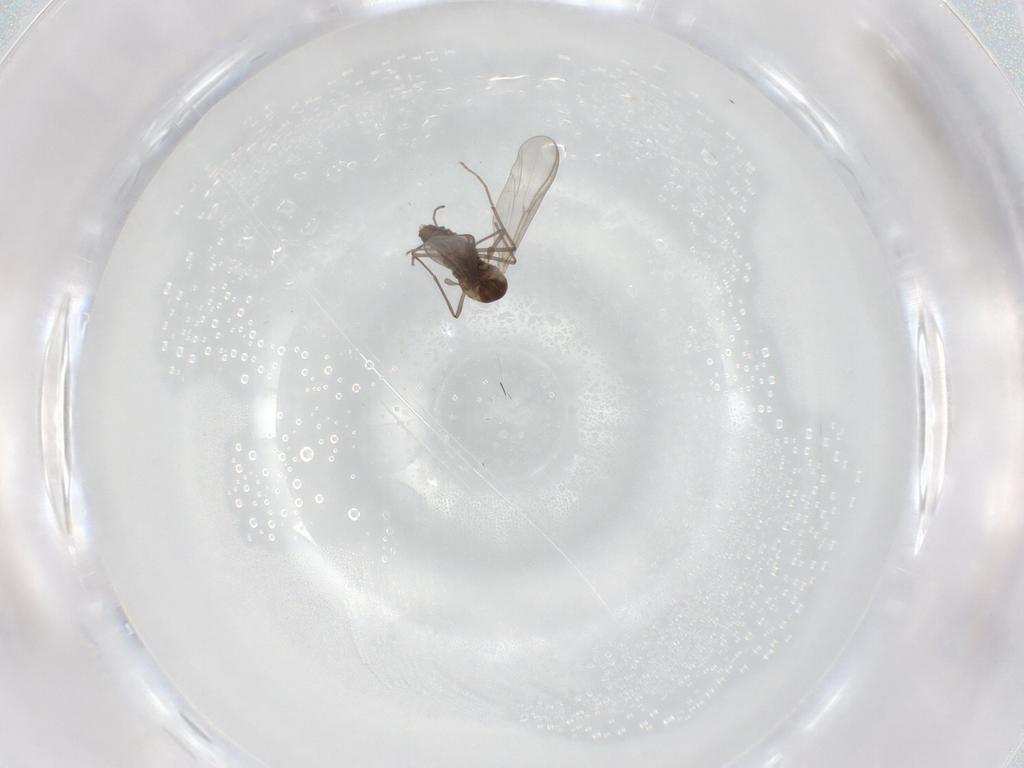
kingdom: Animalia
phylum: Arthropoda
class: Insecta
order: Diptera
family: Chironomidae
